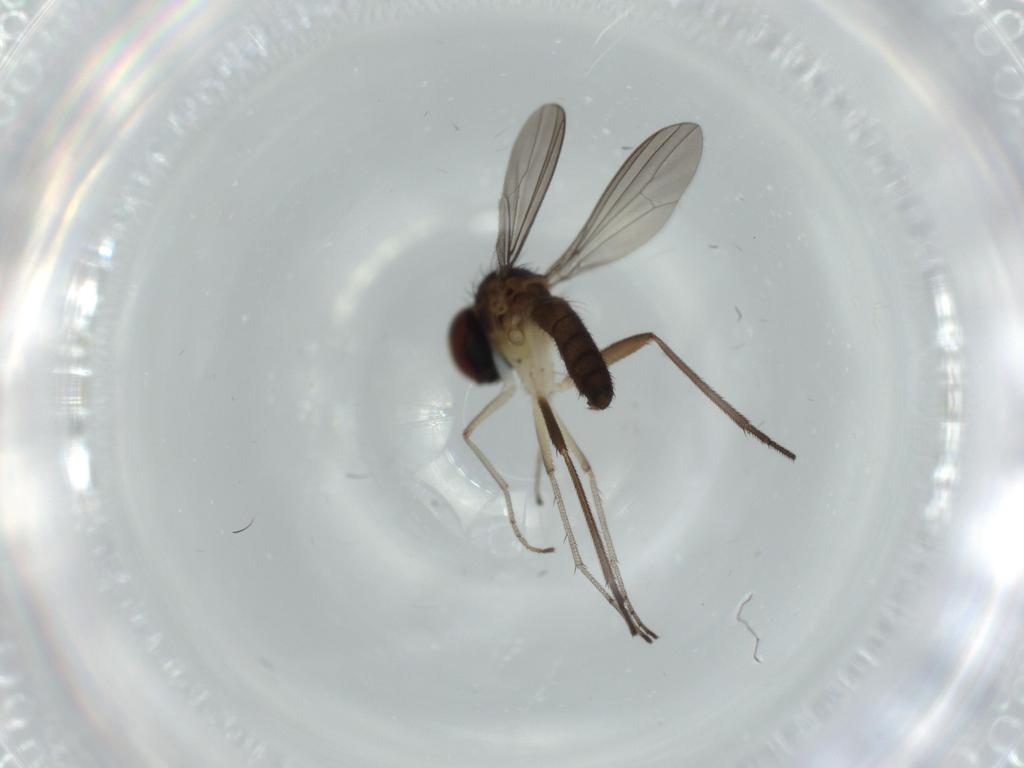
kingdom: Animalia
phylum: Arthropoda
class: Insecta
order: Diptera
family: Dolichopodidae
